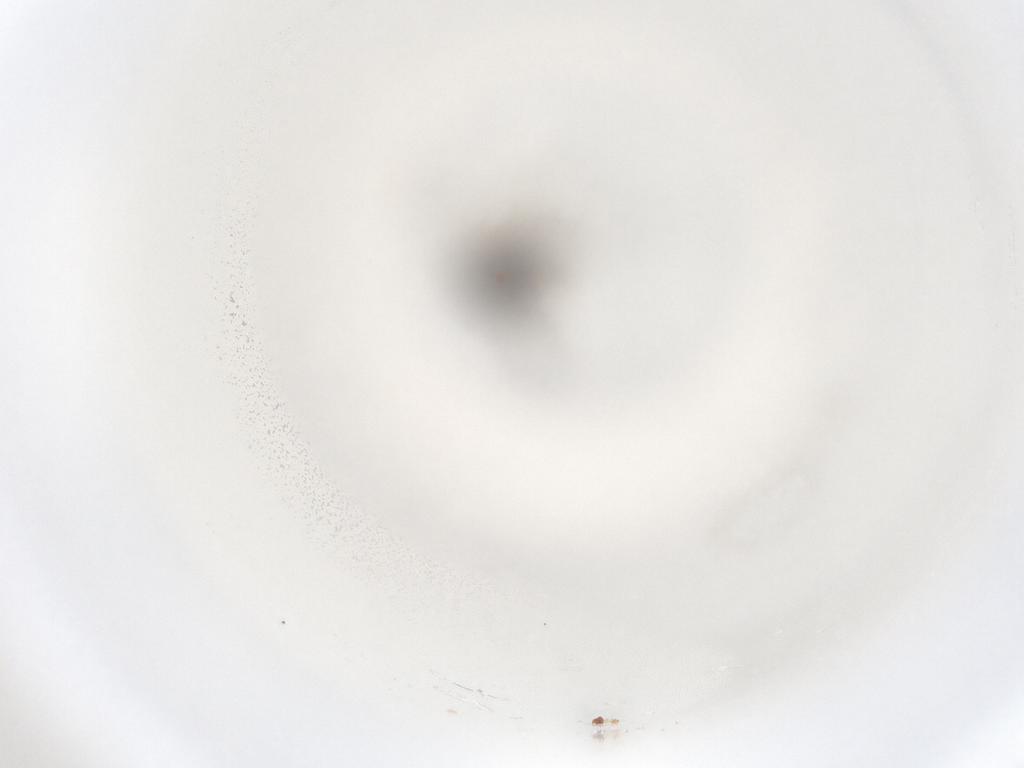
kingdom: Animalia
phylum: Arthropoda
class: Insecta
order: Diptera
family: Ceratopogonidae
